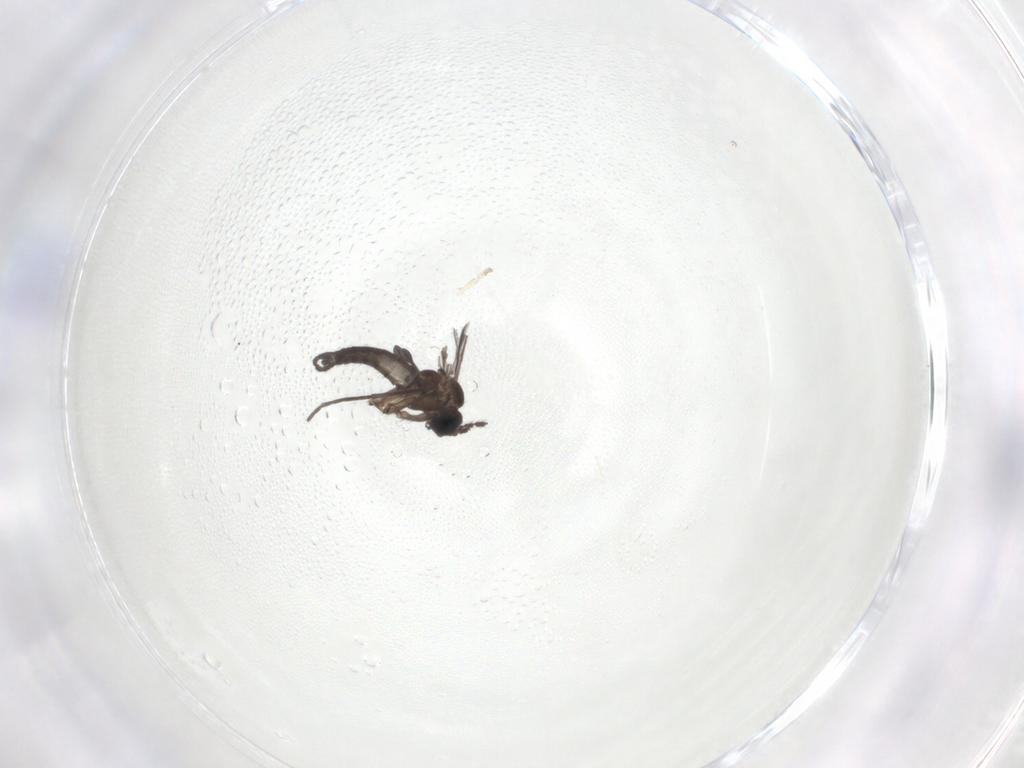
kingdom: Animalia
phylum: Arthropoda
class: Insecta
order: Diptera
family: Sciaridae
